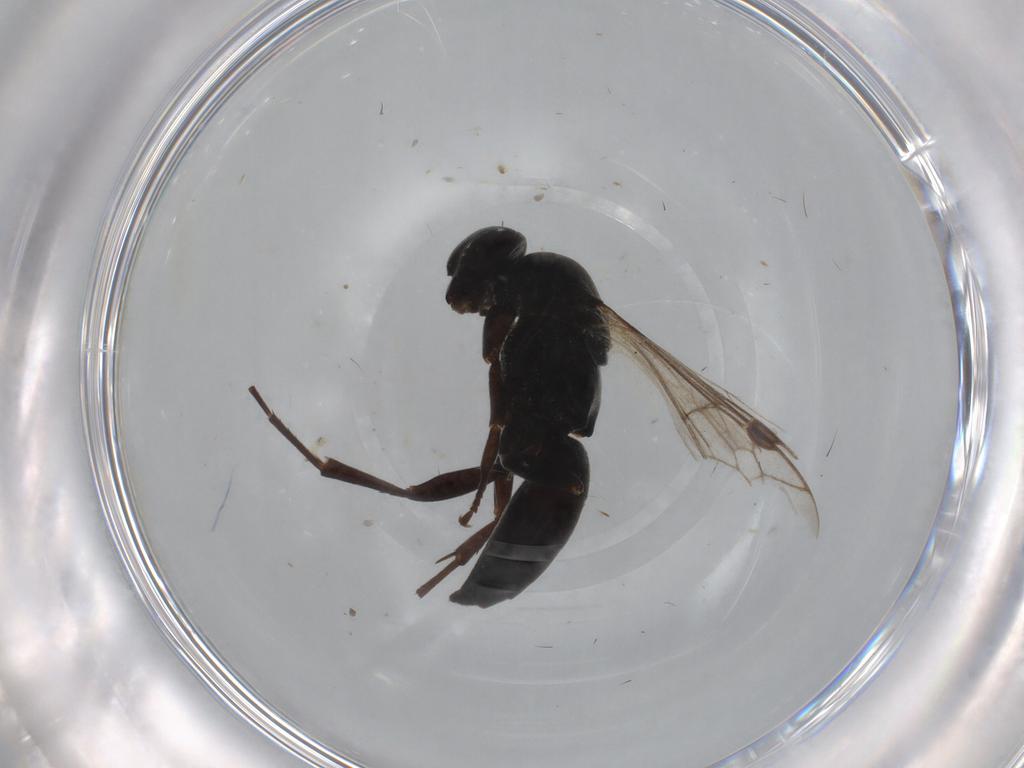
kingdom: Animalia
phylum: Arthropoda
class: Insecta
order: Hymenoptera
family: Pompilidae
